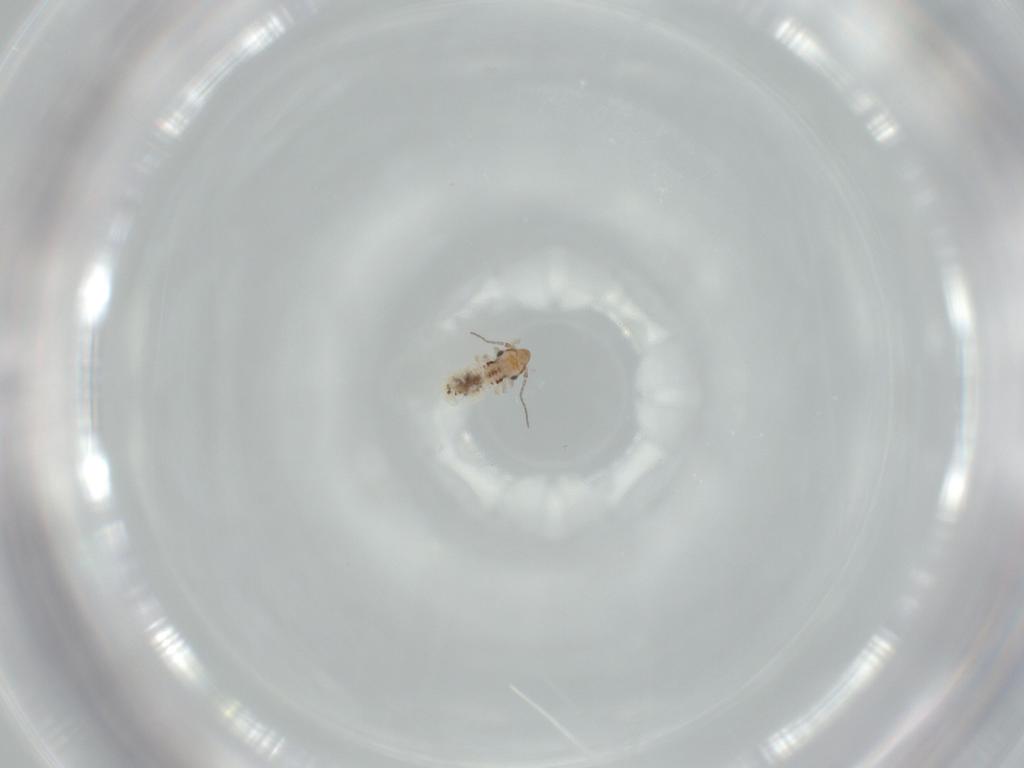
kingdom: Animalia
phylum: Arthropoda
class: Insecta
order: Psocodea
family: Lepidopsocidae
